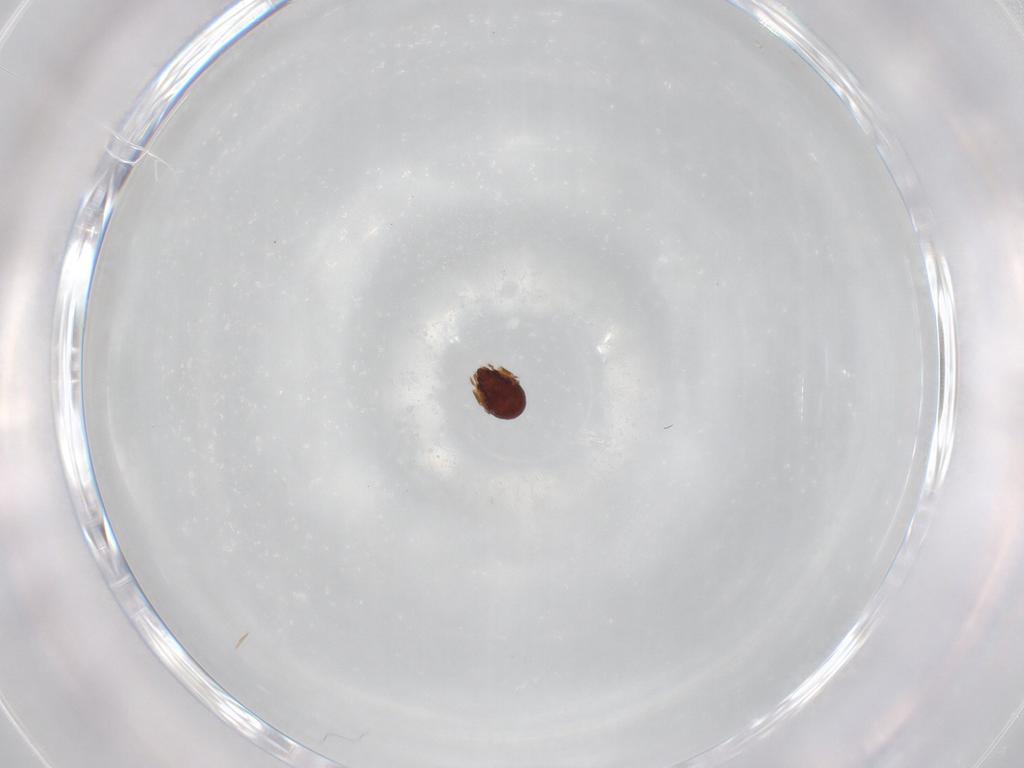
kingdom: Animalia
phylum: Arthropoda
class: Arachnida
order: Sarcoptiformes
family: Phenopelopidae
